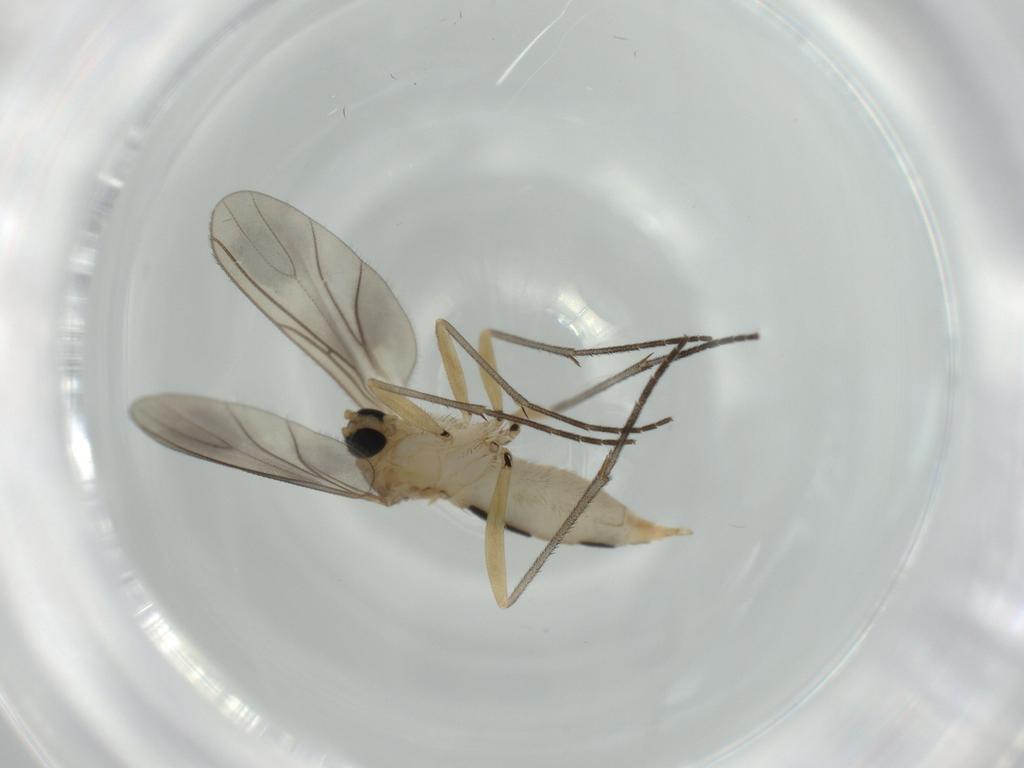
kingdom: Animalia
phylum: Arthropoda
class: Insecta
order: Diptera
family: Sciaridae
